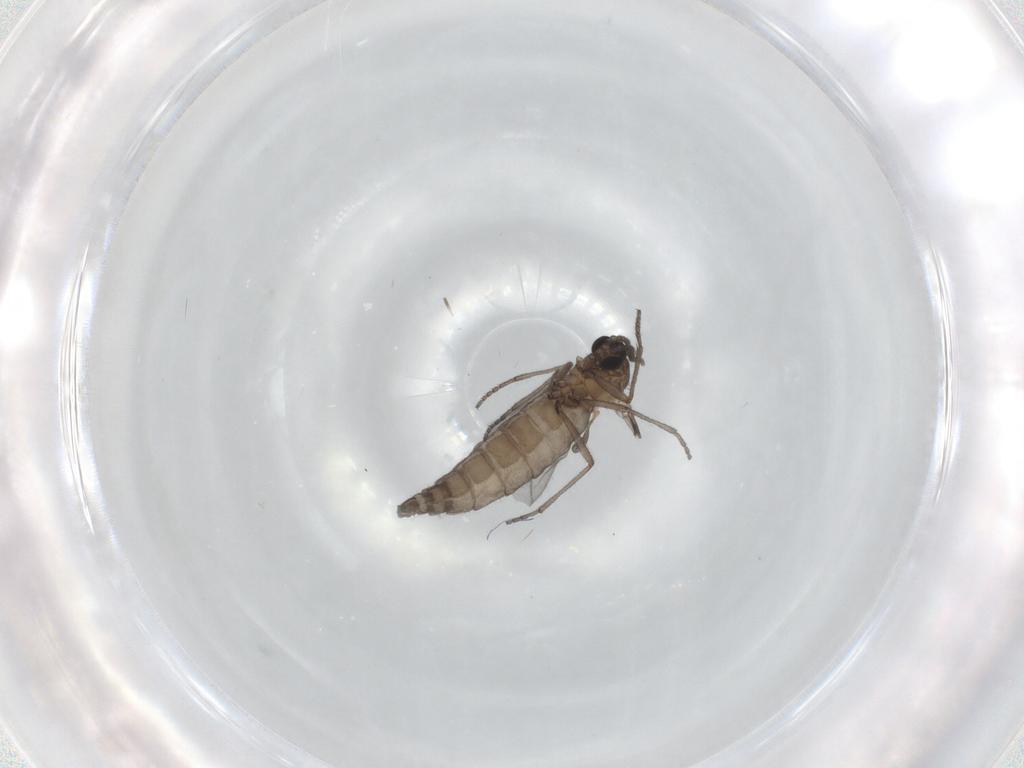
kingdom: Animalia
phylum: Arthropoda
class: Insecta
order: Diptera
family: Sciaridae
